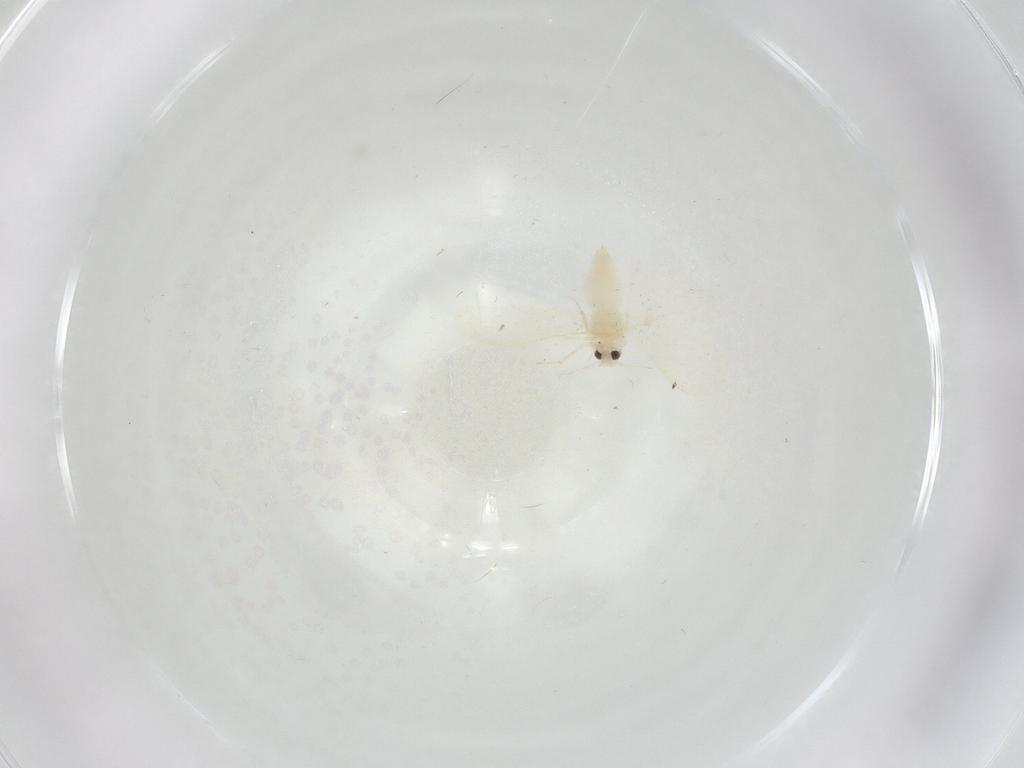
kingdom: Animalia
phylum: Arthropoda
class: Insecta
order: Hemiptera
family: Aleyrodidae
